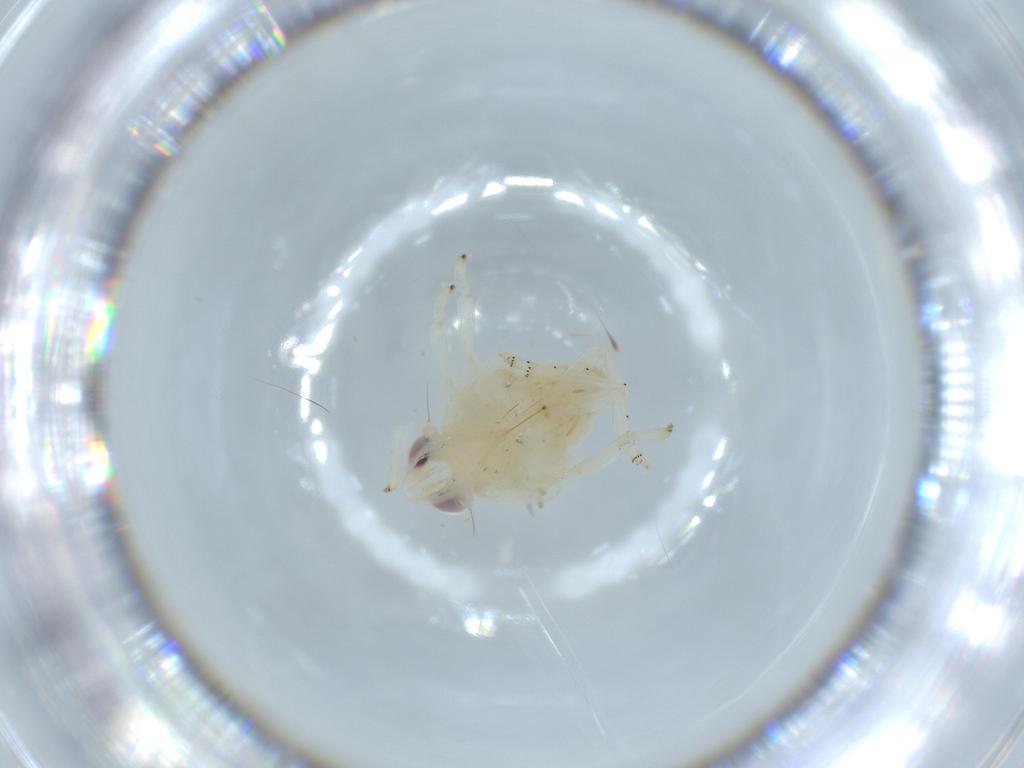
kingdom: Animalia
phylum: Arthropoda
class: Insecta
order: Hemiptera
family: Nogodinidae
